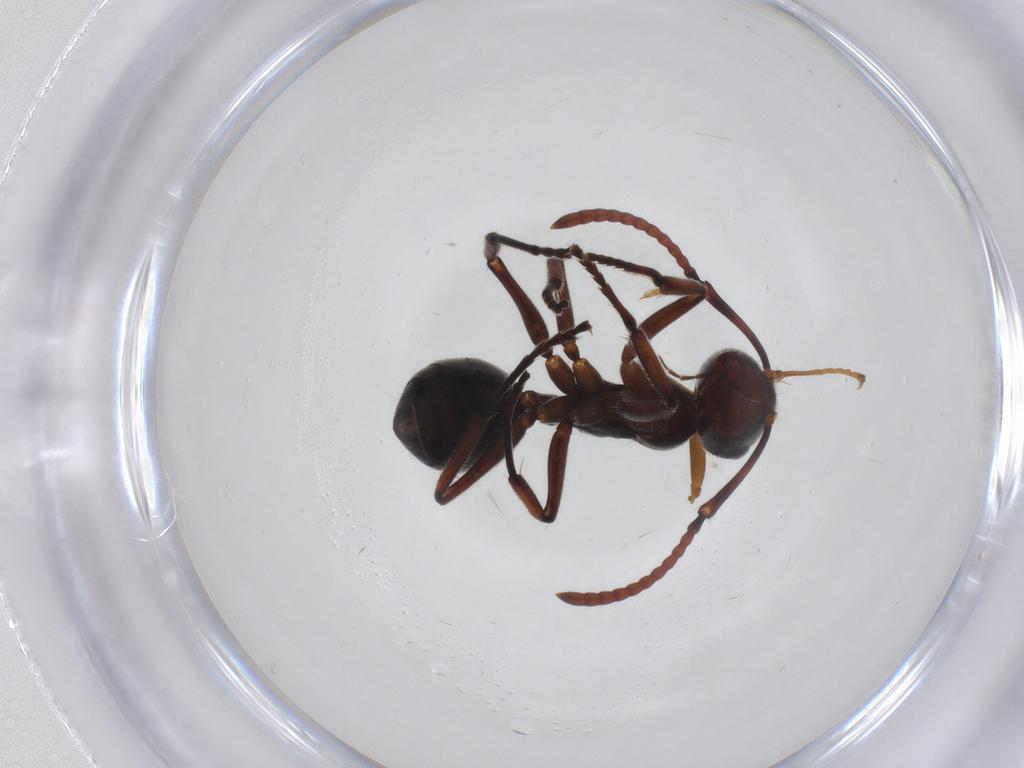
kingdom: Animalia
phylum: Arthropoda
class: Insecta
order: Hymenoptera
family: Formicidae
